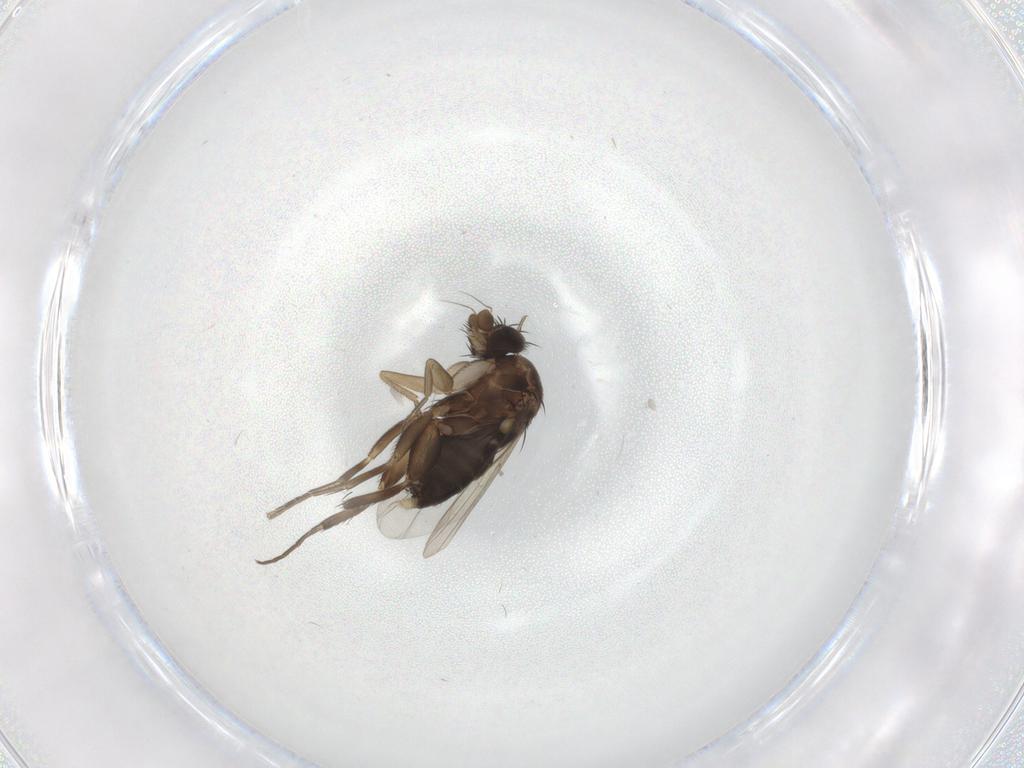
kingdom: Animalia
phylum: Arthropoda
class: Insecta
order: Diptera
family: Phoridae
